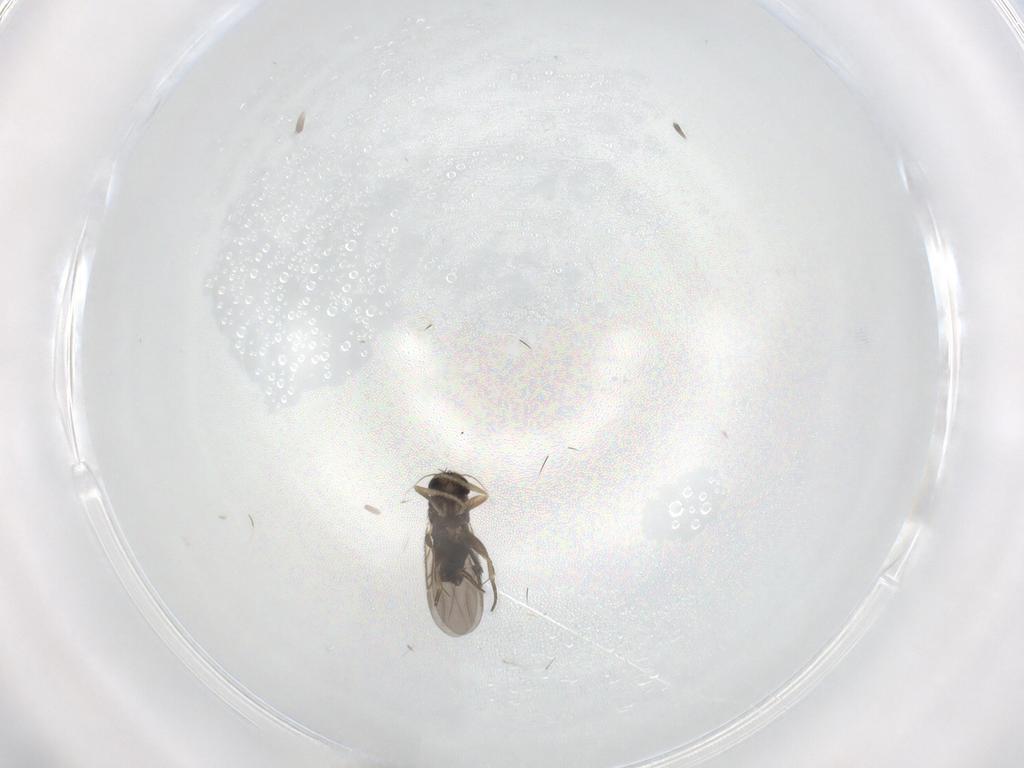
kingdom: Animalia
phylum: Arthropoda
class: Insecta
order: Diptera
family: Phoridae
